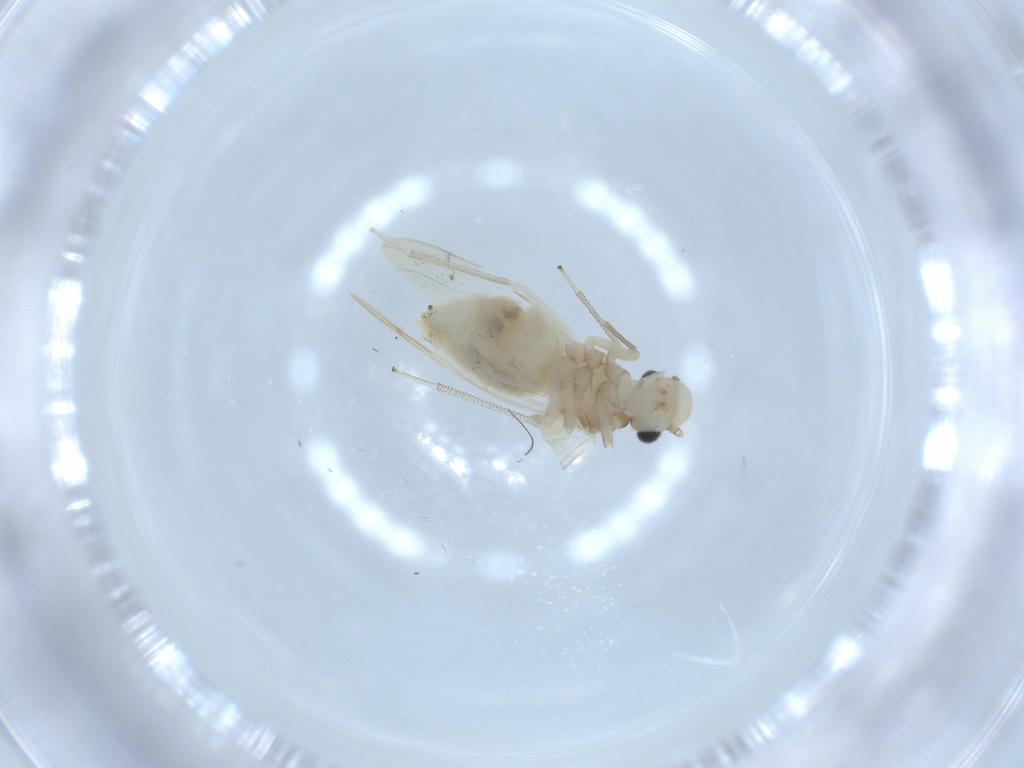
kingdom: Animalia
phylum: Arthropoda
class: Insecta
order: Psocodea
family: Caeciliusidae
